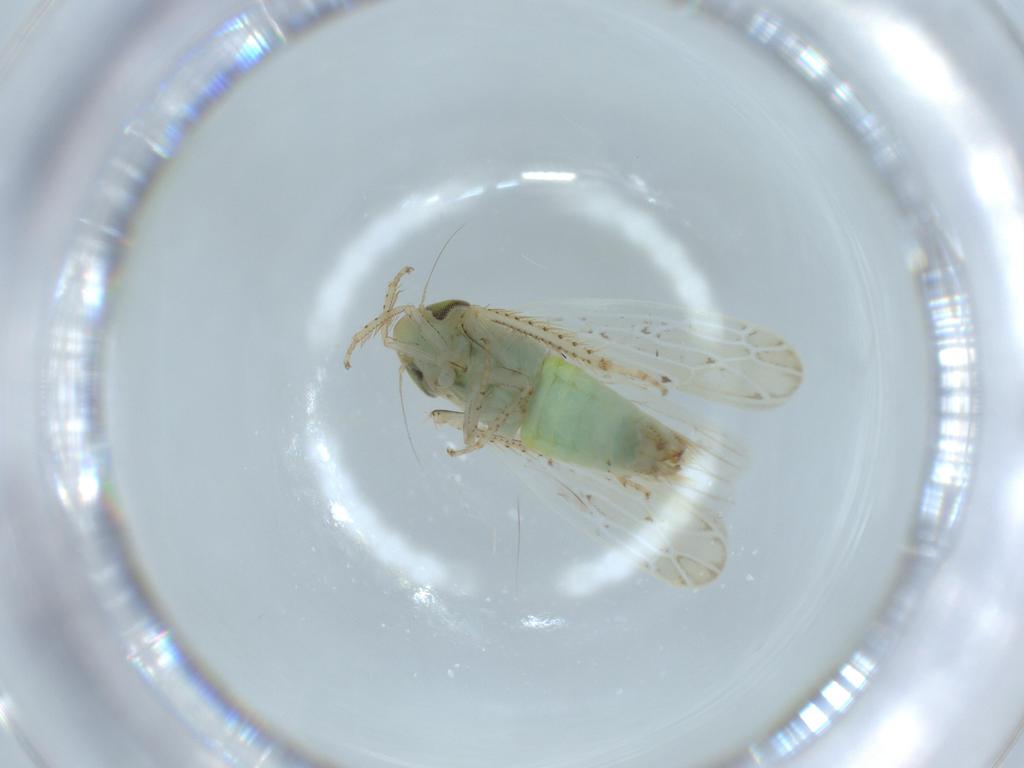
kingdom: Animalia
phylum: Arthropoda
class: Insecta
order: Hemiptera
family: Cicadellidae
